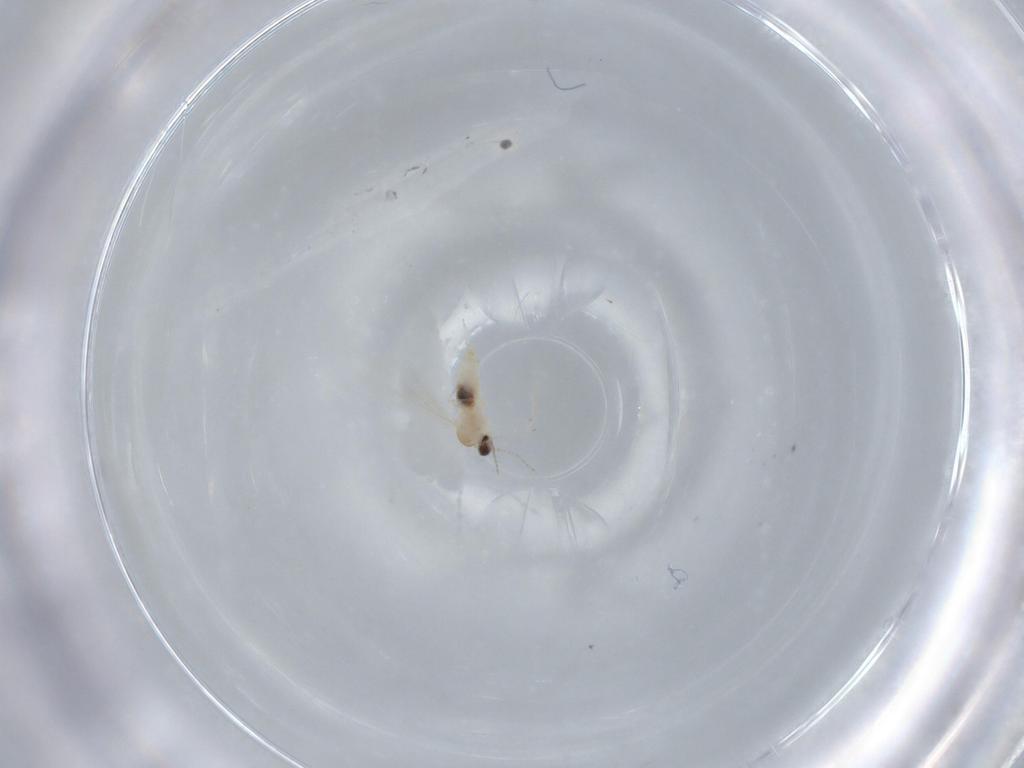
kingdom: Animalia
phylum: Arthropoda
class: Insecta
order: Diptera
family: Cecidomyiidae
